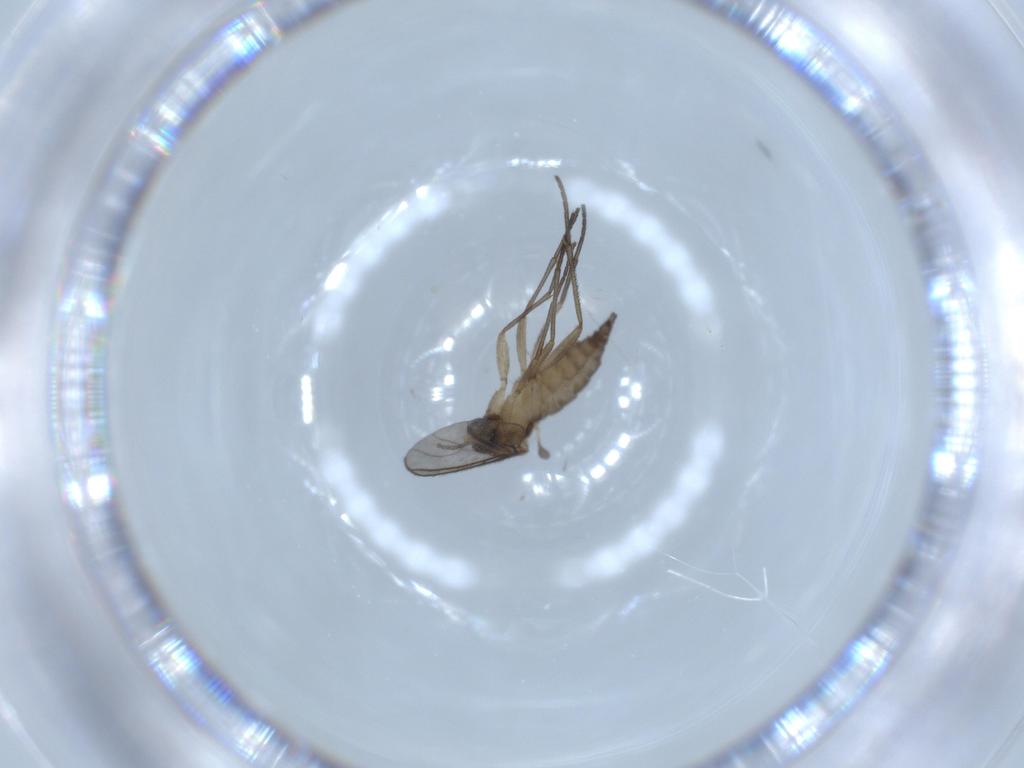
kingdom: Animalia
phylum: Arthropoda
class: Insecta
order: Diptera
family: Sciaridae
